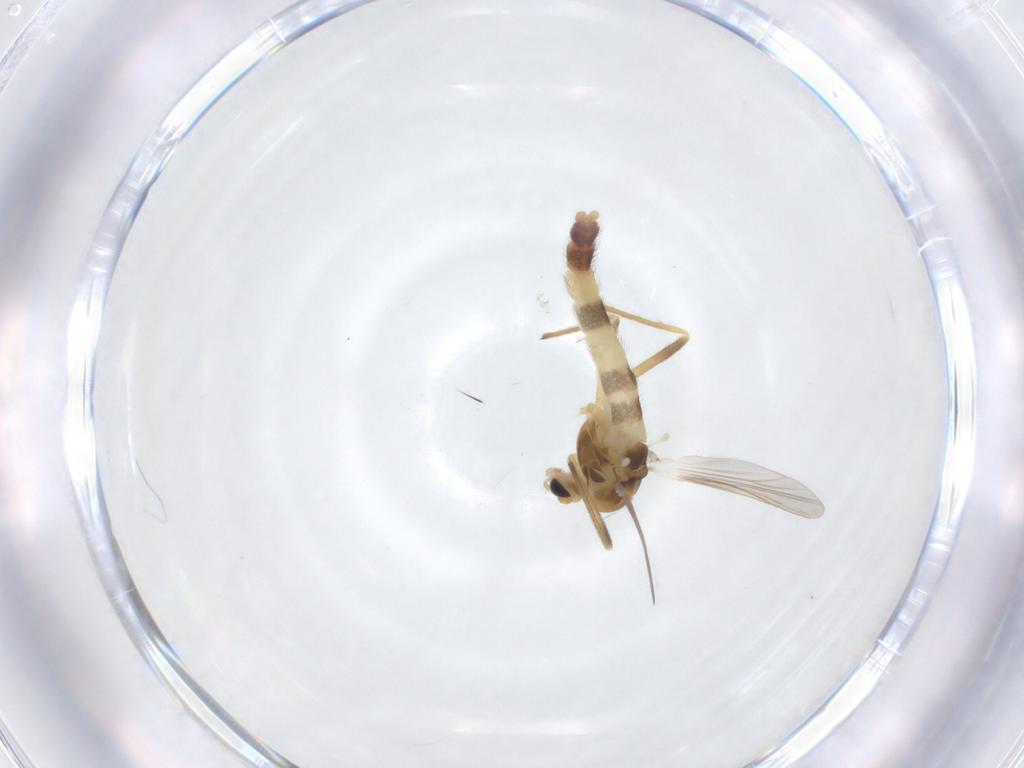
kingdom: Animalia
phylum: Arthropoda
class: Insecta
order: Diptera
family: Chironomidae
